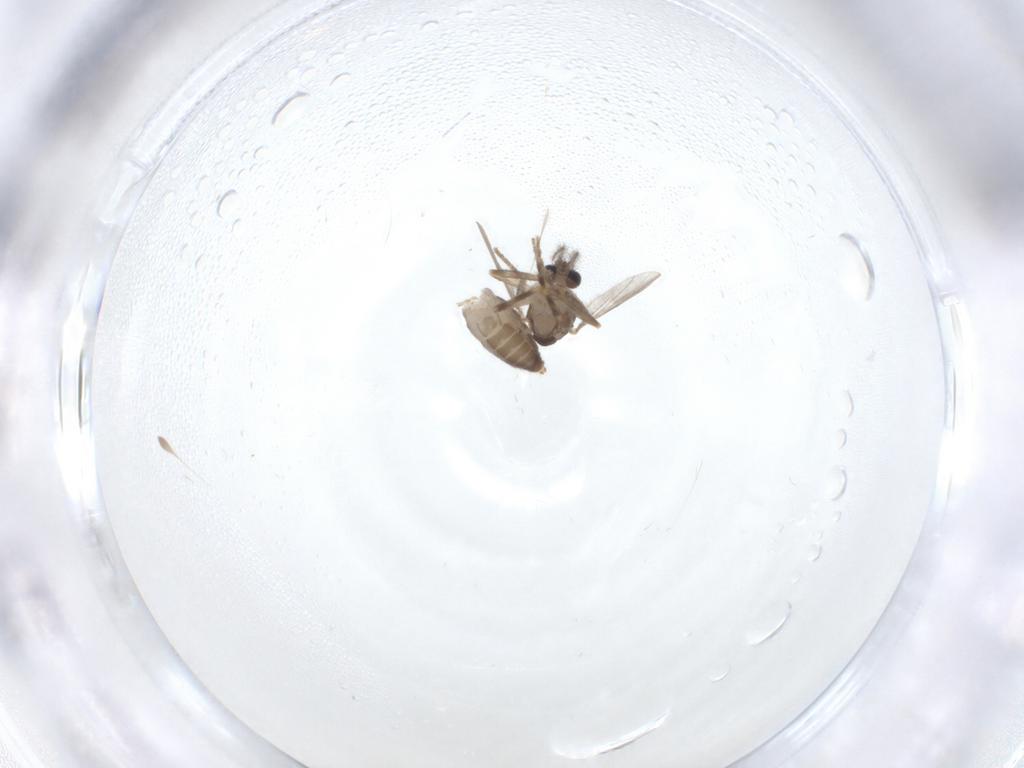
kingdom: Animalia
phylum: Arthropoda
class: Insecta
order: Diptera
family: Ceratopogonidae
